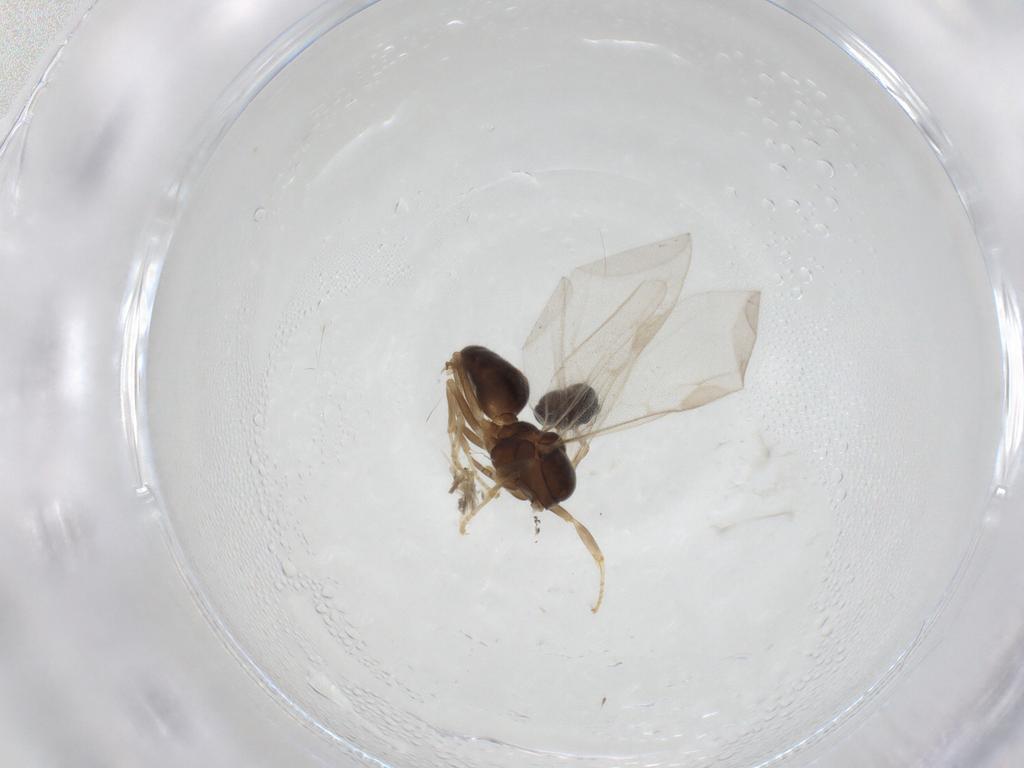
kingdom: Animalia
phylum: Arthropoda
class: Insecta
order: Hymenoptera
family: Formicidae
